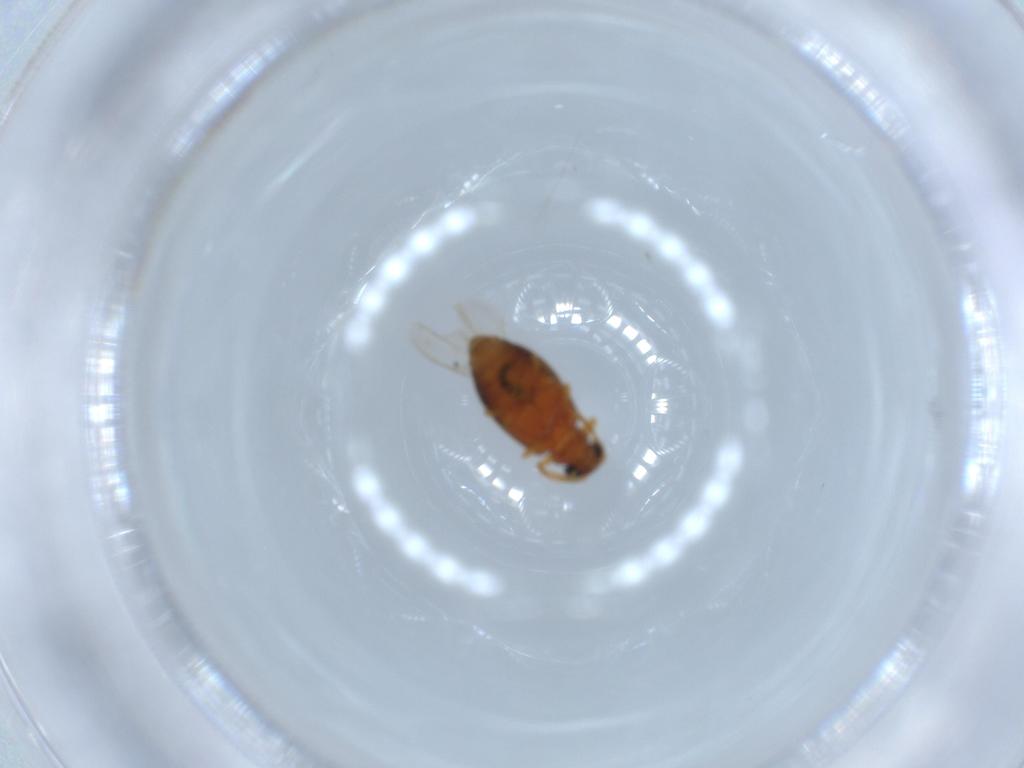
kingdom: Animalia
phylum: Arthropoda
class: Insecta
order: Coleoptera
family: Aderidae
